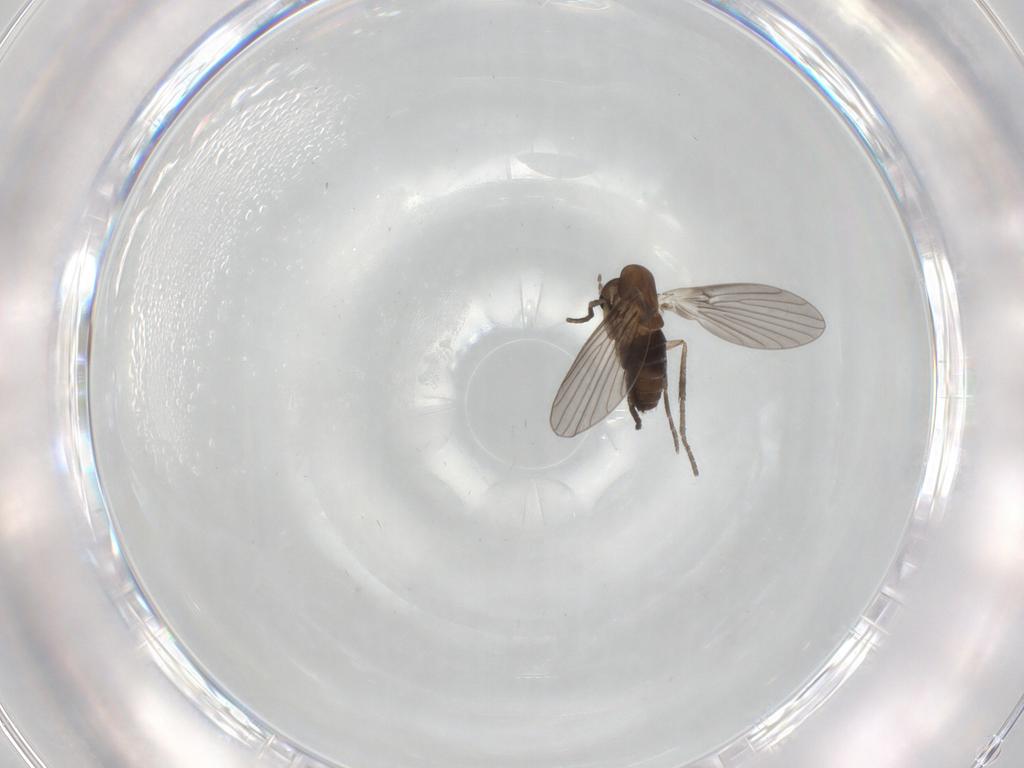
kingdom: Animalia
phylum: Arthropoda
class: Insecta
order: Diptera
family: Psychodidae
